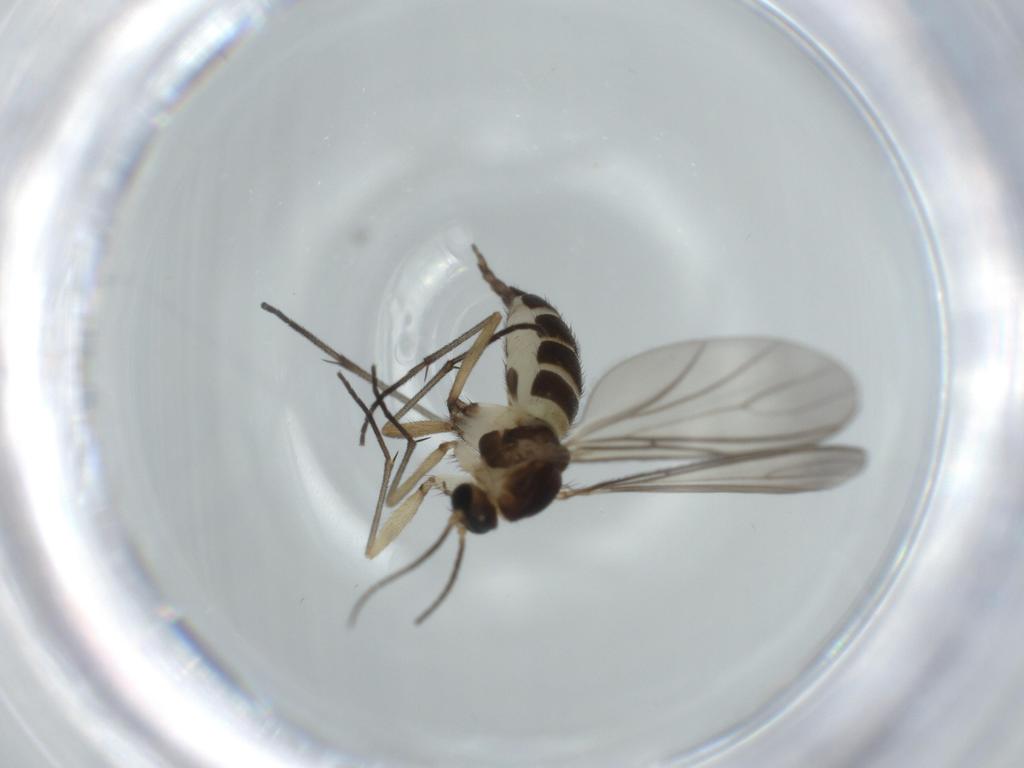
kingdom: Animalia
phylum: Arthropoda
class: Insecta
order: Diptera
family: Sciaridae
